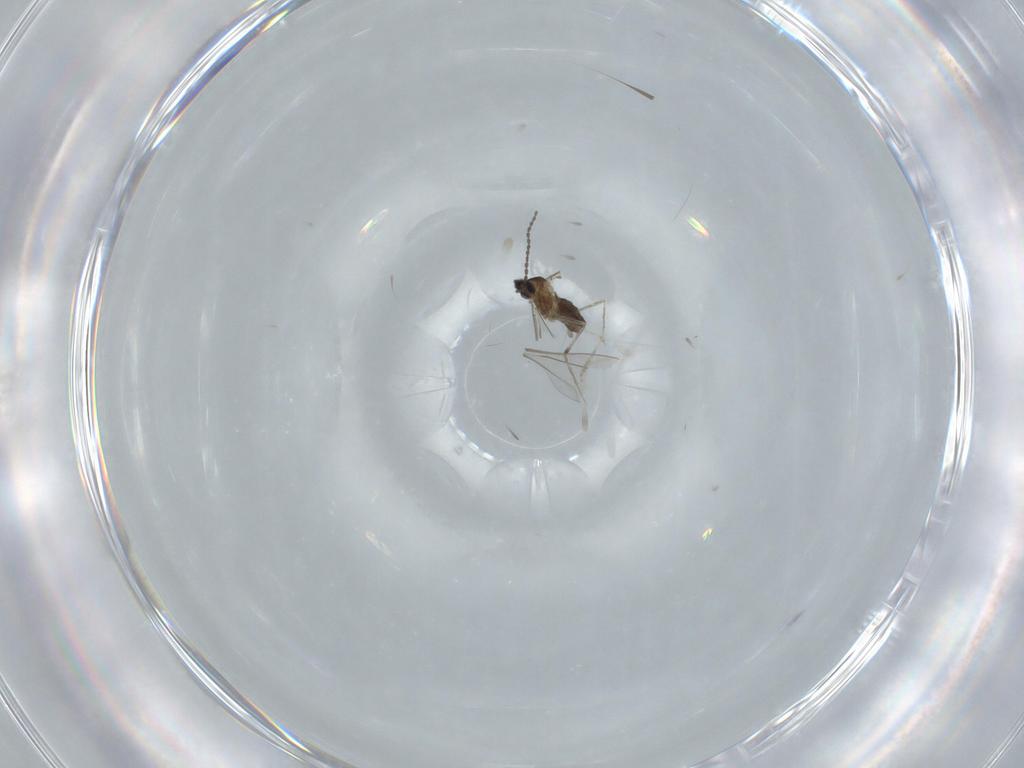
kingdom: Animalia
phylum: Arthropoda
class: Insecta
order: Diptera
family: Cecidomyiidae
